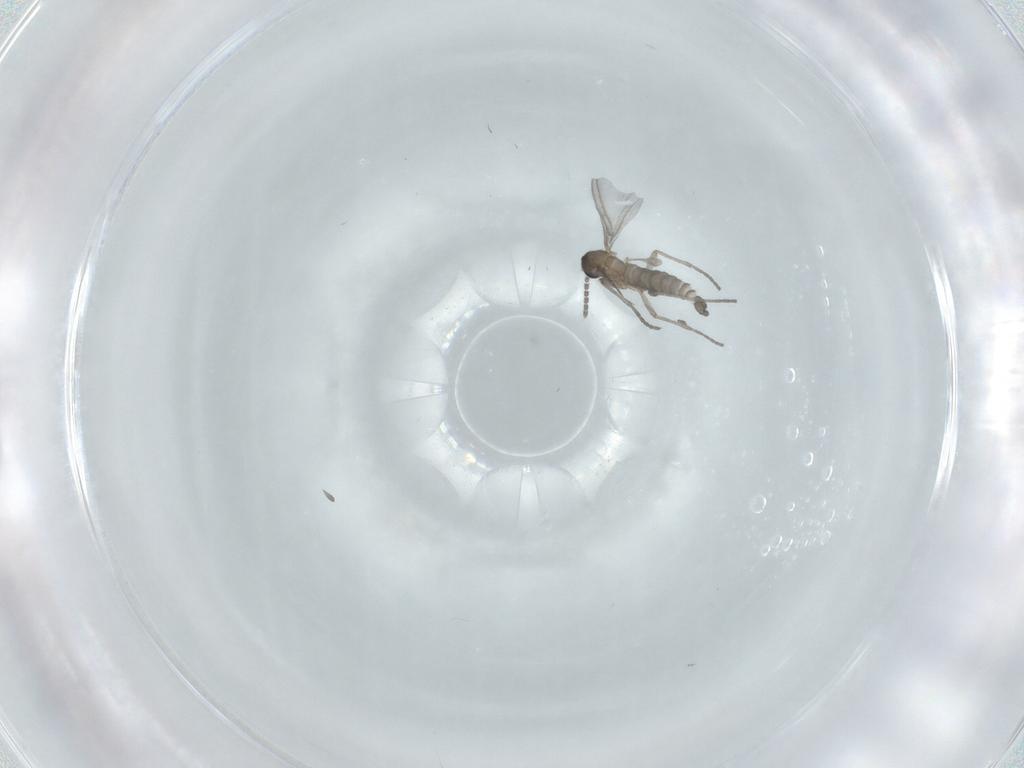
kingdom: Animalia
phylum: Arthropoda
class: Insecta
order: Diptera
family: Sciaridae
